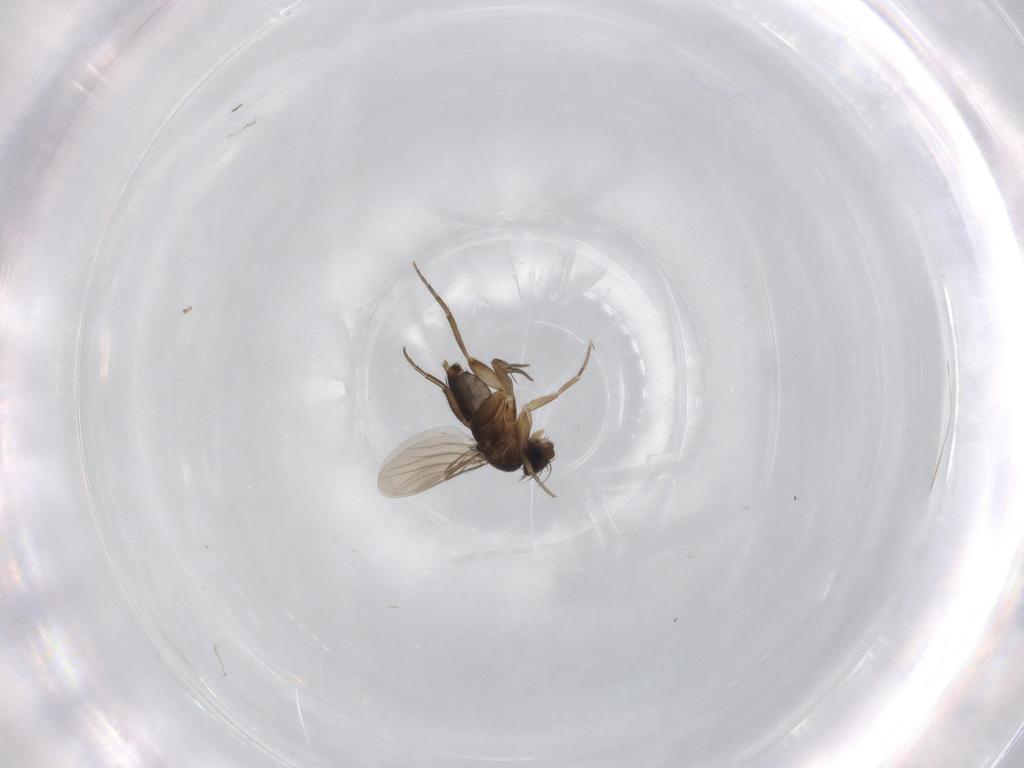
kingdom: Animalia
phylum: Arthropoda
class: Insecta
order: Diptera
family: Phoridae
